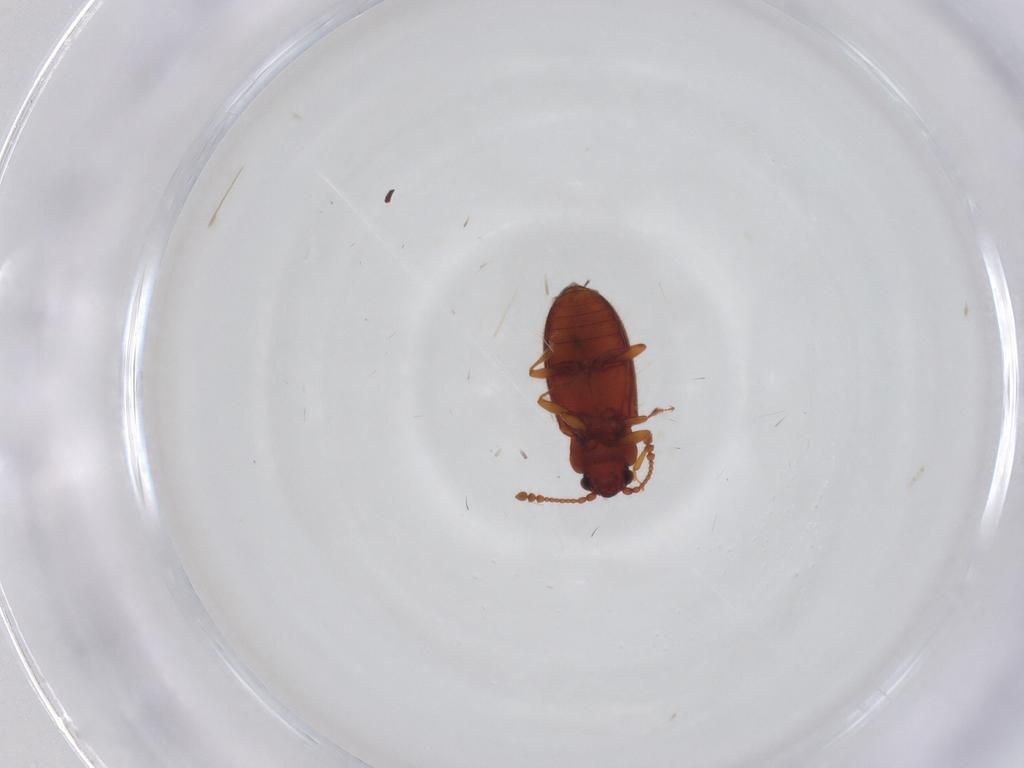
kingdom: Animalia
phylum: Arthropoda
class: Insecta
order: Coleoptera
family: Cryptophagidae
